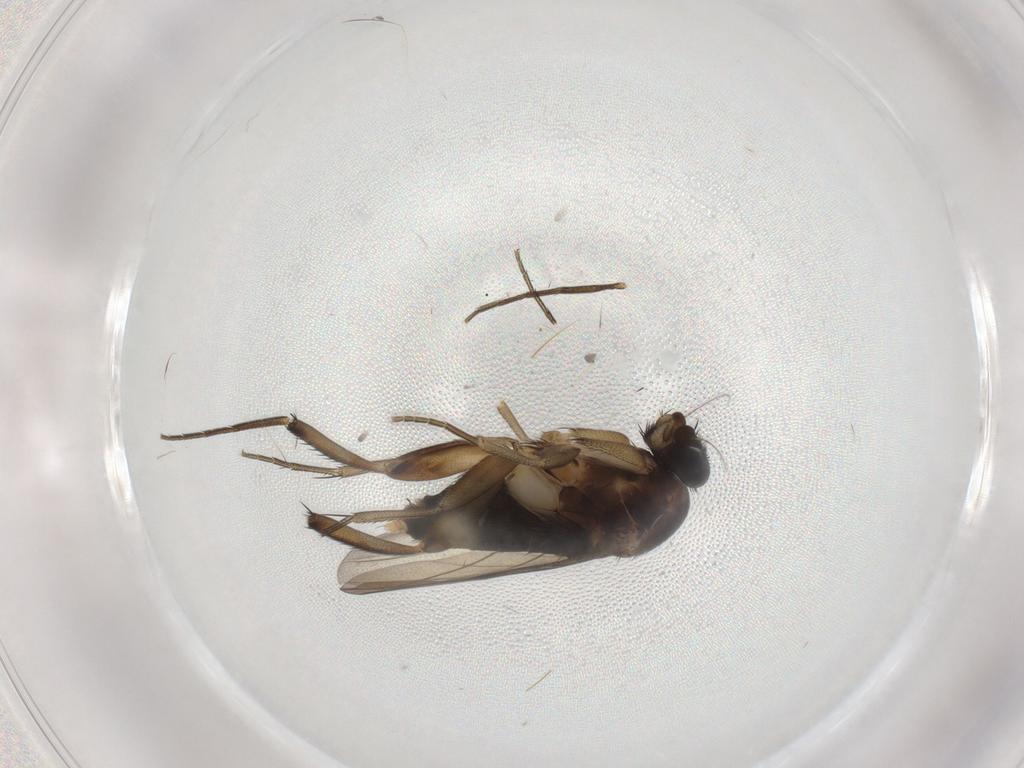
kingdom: Animalia
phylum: Arthropoda
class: Insecta
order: Diptera
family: Phoridae
